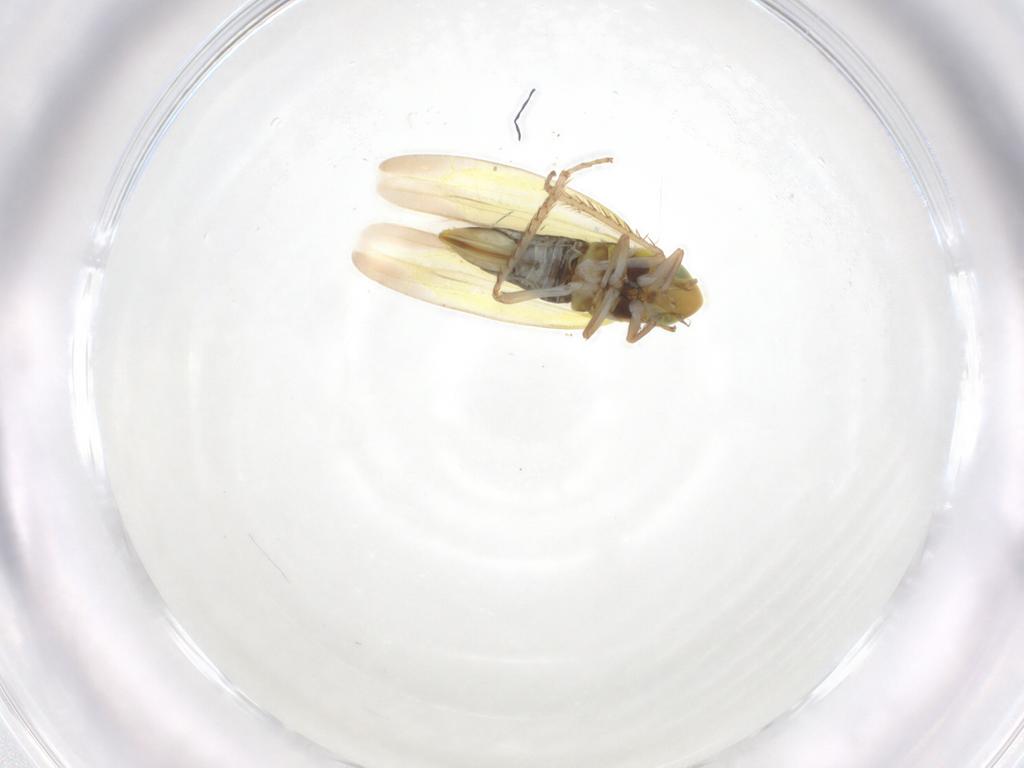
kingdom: Animalia
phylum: Arthropoda
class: Insecta
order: Hemiptera
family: Cicadellidae
